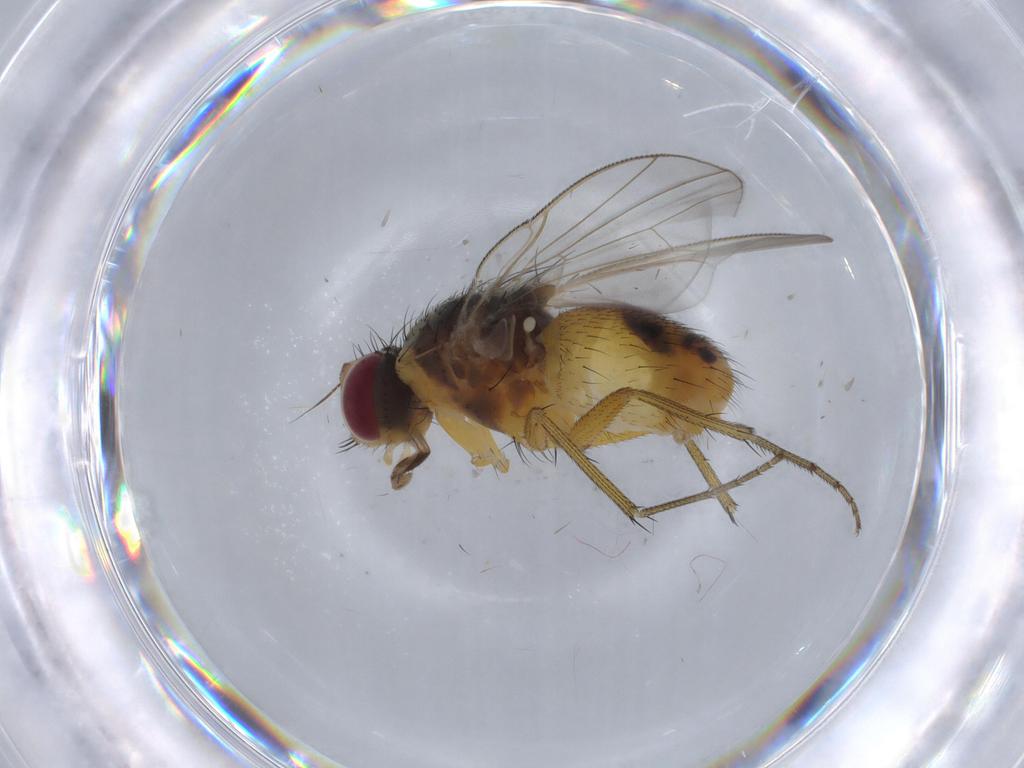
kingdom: Animalia
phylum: Arthropoda
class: Insecta
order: Diptera
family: Muscidae
